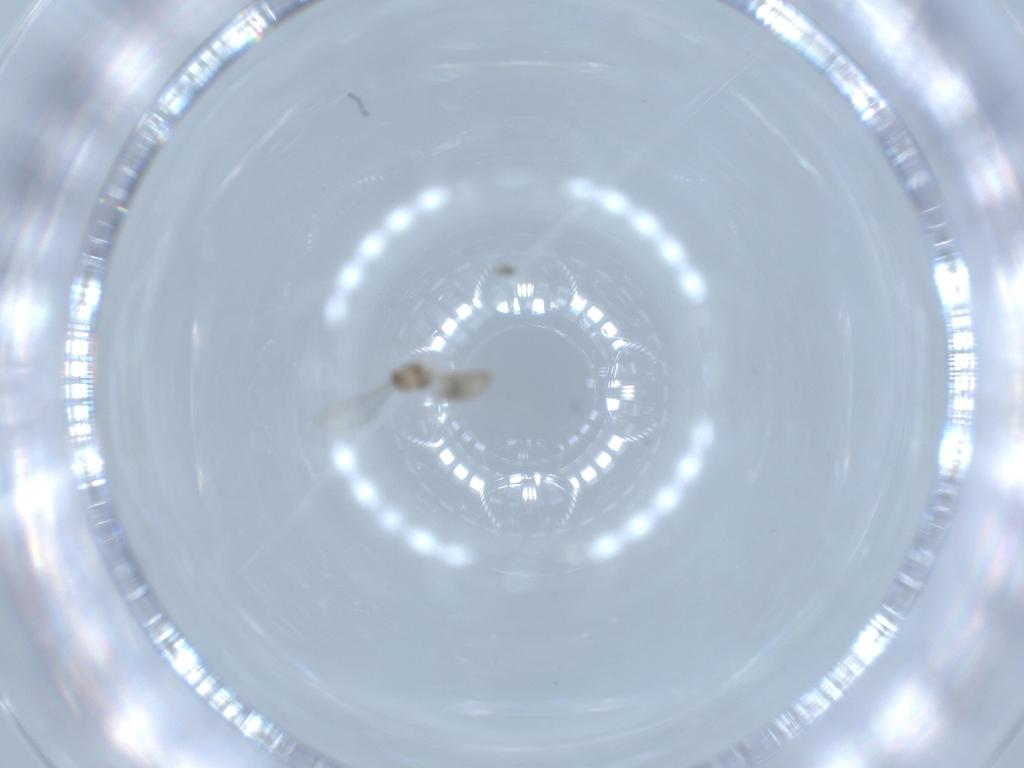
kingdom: Animalia
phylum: Arthropoda
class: Insecta
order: Diptera
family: Cecidomyiidae
